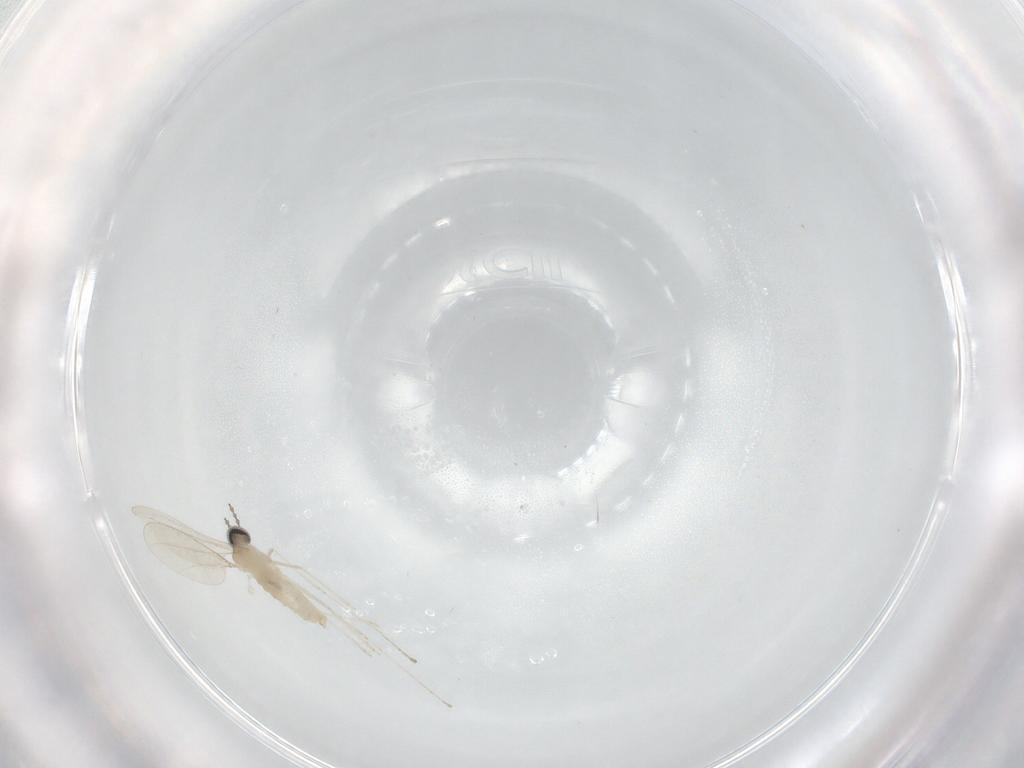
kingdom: Animalia
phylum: Arthropoda
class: Insecta
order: Diptera
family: Cecidomyiidae
